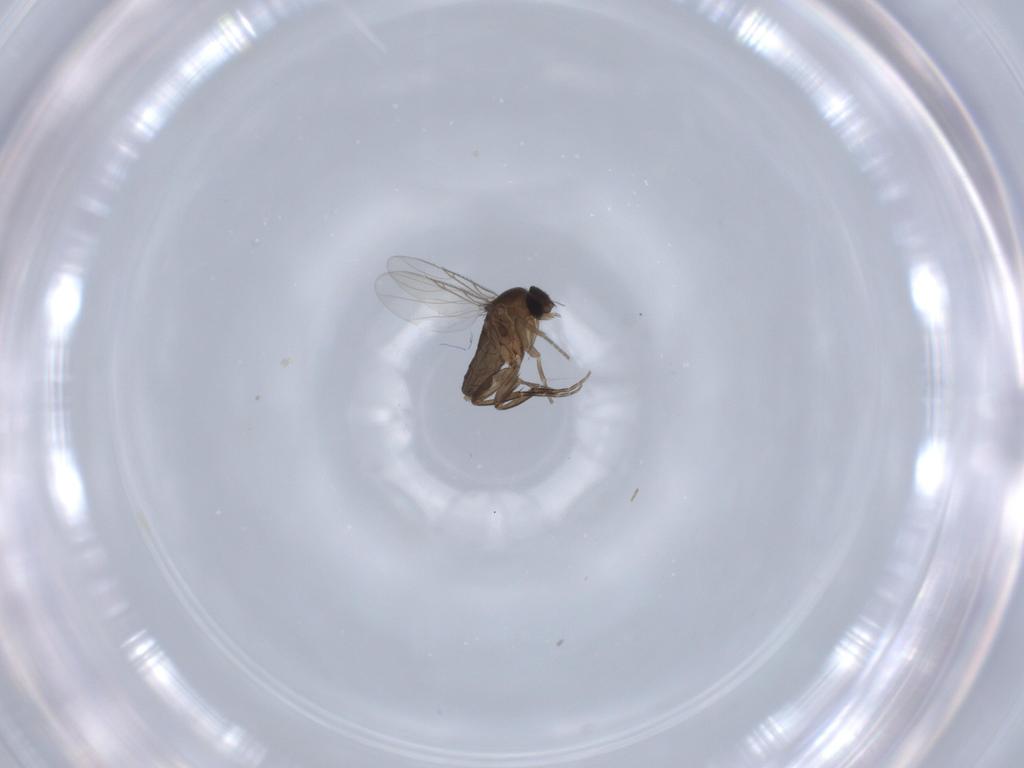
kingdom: Animalia
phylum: Arthropoda
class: Insecta
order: Diptera
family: Phoridae
